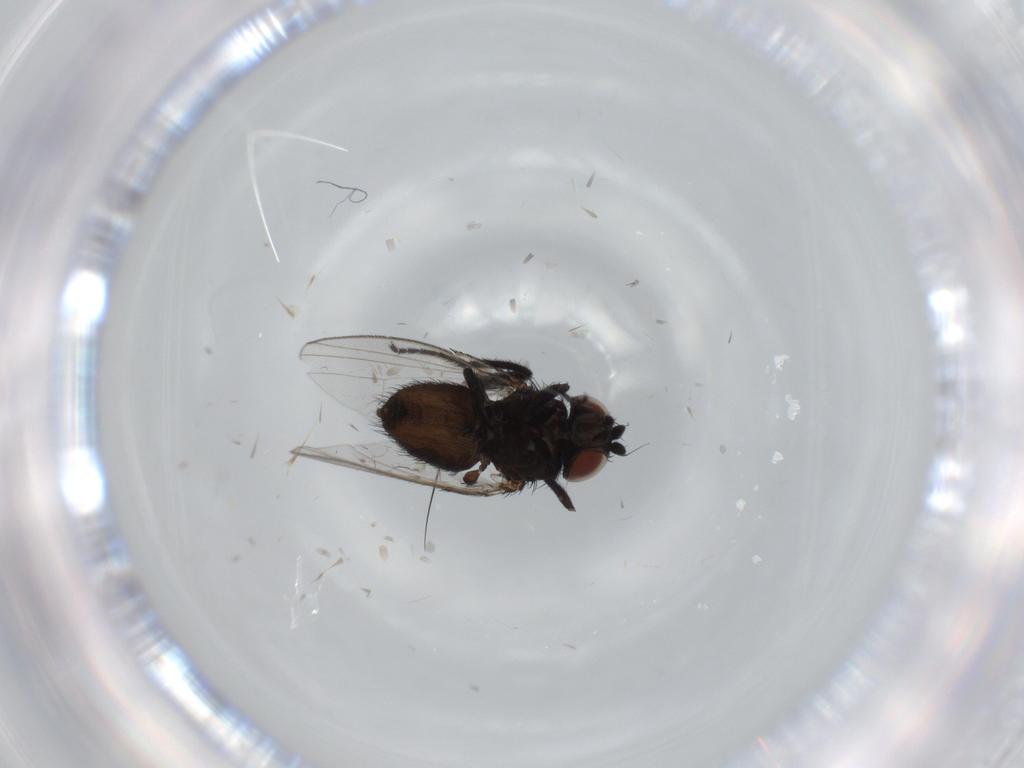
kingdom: Animalia
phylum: Arthropoda
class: Insecta
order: Diptera
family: Milichiidae
